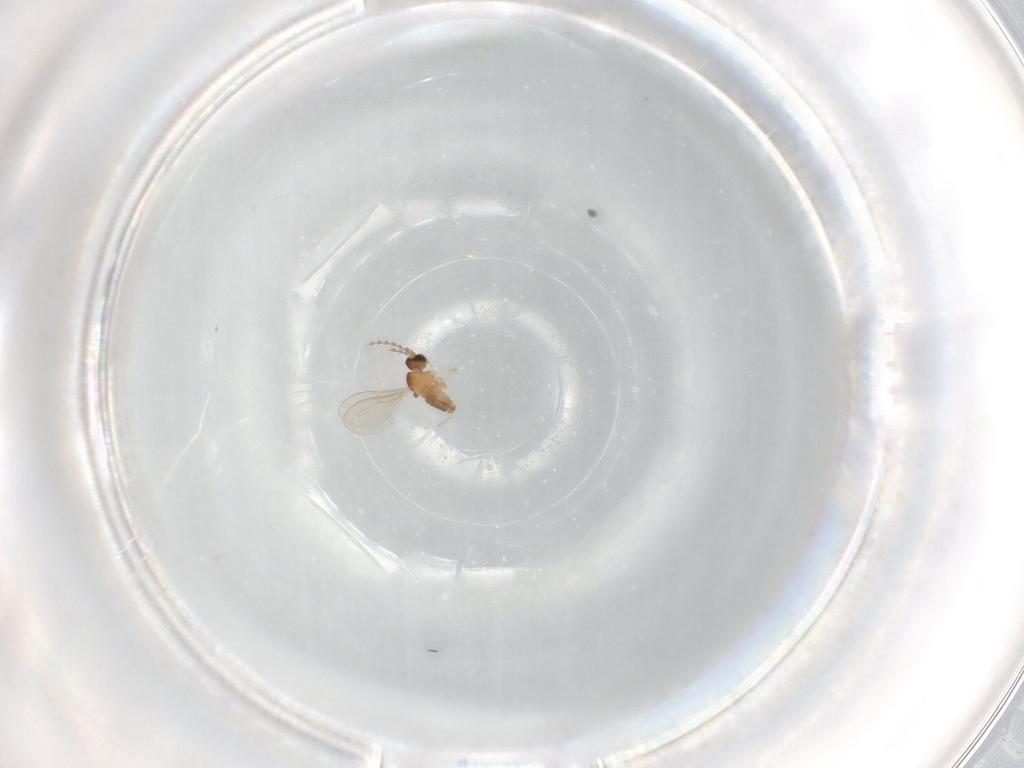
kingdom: Animalia
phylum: Arthropoda
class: Insecta
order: Diptera
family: Cecidomyiidae
